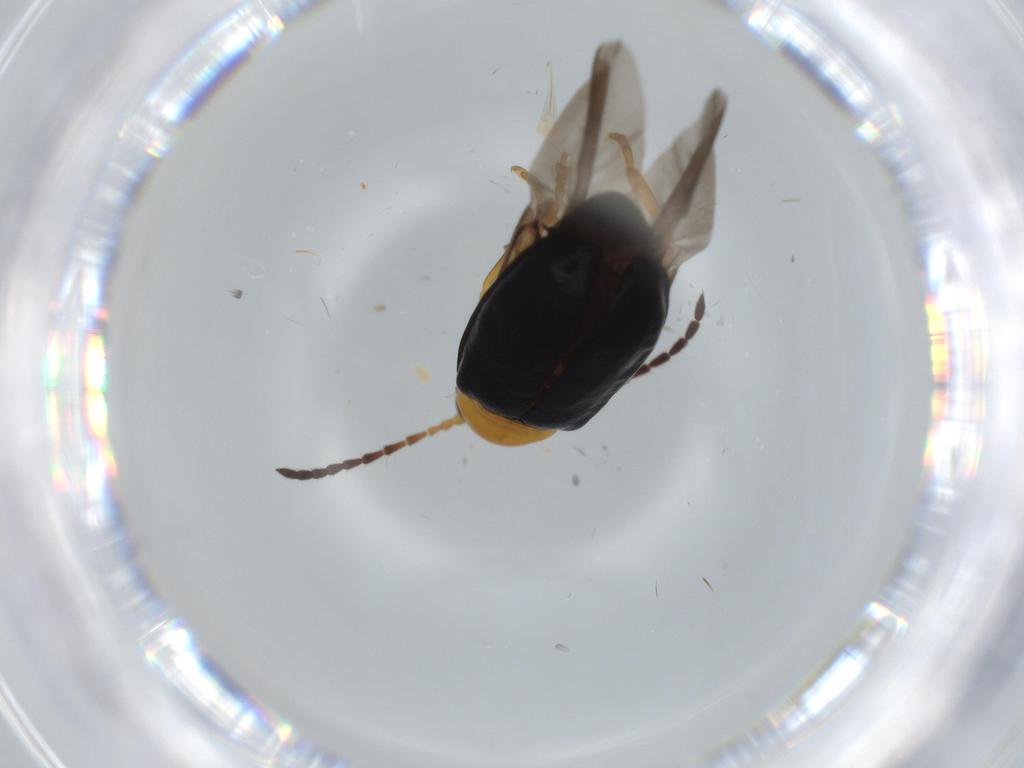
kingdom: Animalia
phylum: Arthropoda
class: Insecta
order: Coleoptera
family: Chrysomelidae
